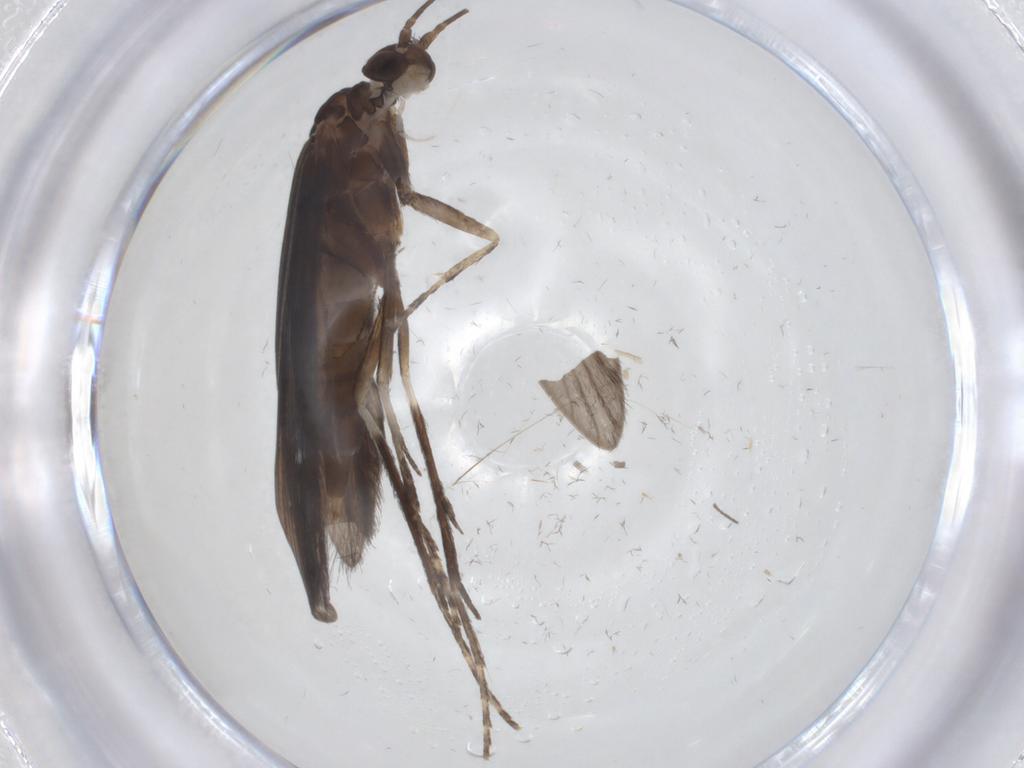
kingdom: Animalia
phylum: Arthropoda
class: Insecta
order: Trichoptera
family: Xiphocentronidae
